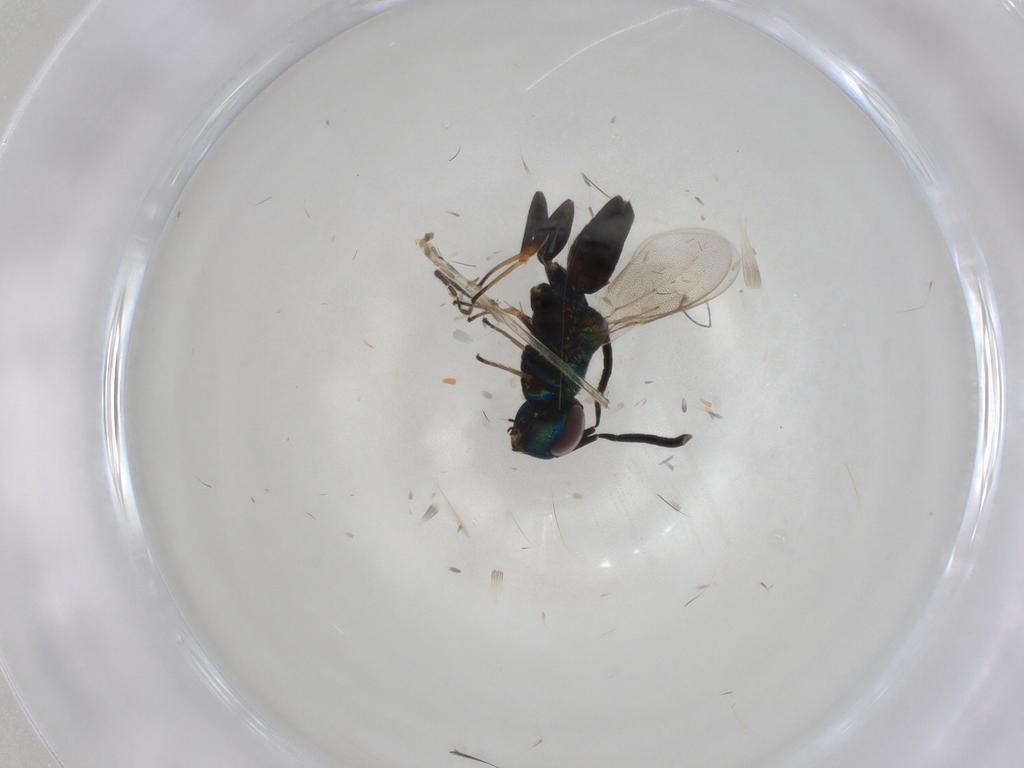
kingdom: Animalia
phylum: Arthropoda
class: Insecta
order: Hymenoptera
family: Eupelmidae
